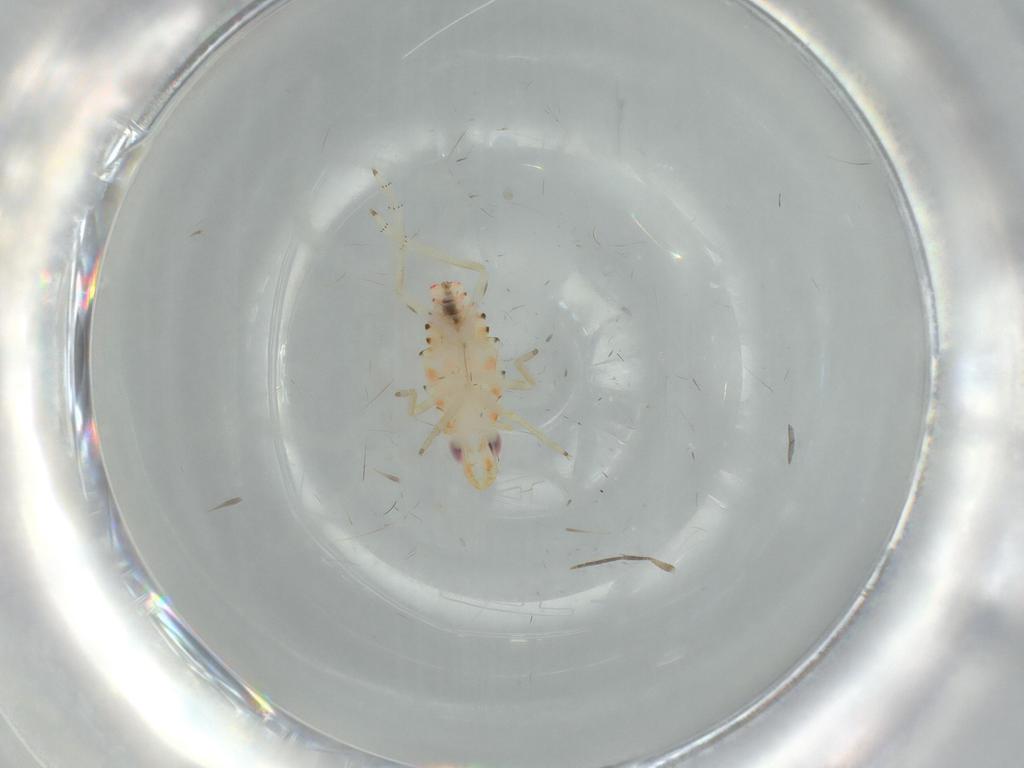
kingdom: Animalia
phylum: Arthropoda
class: Insecta
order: Hemiptera
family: Tropiduchidae
